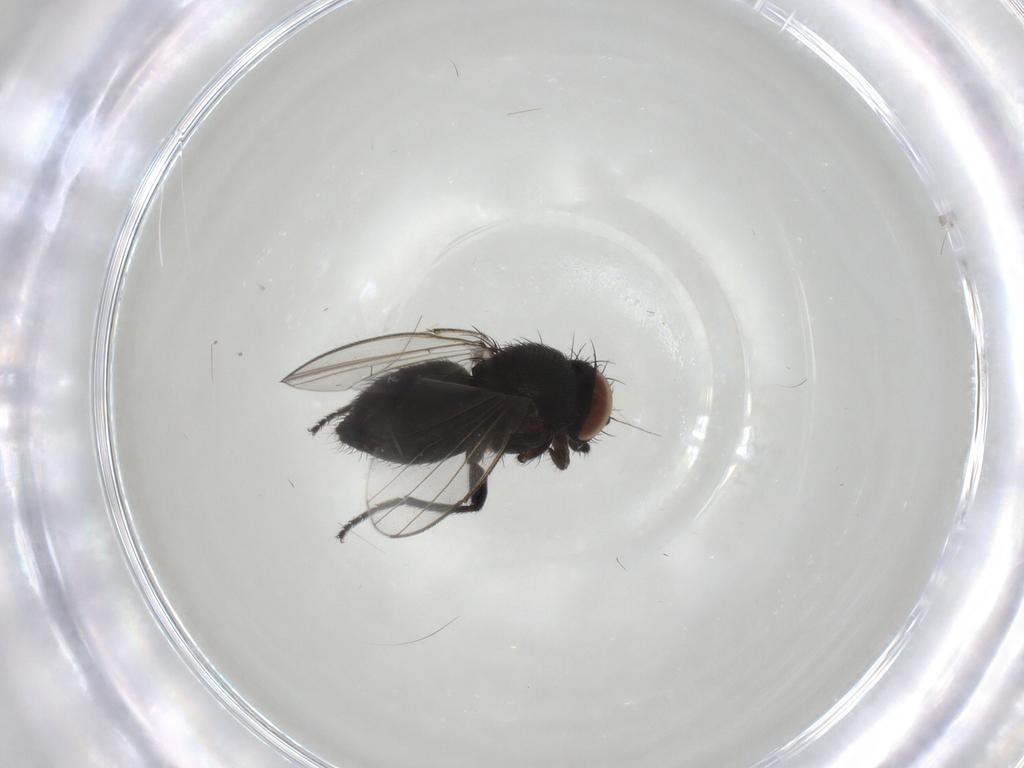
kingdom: Animalia
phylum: Arthropoda
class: Insecta
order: Diptera
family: Milichiidae
